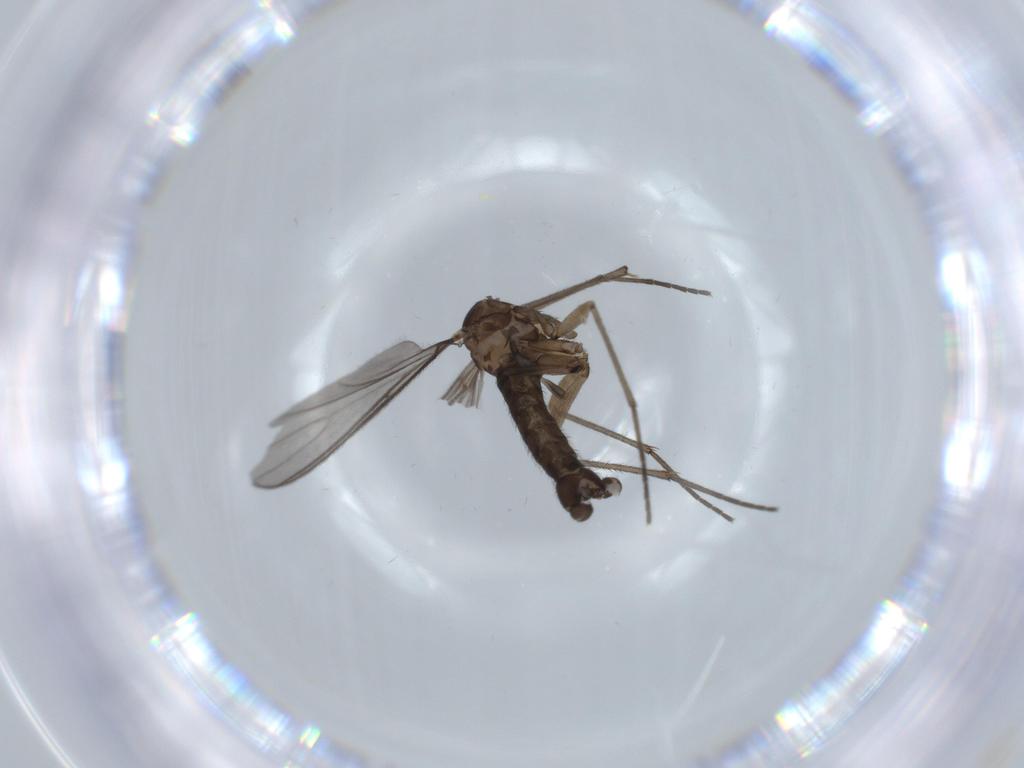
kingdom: Animalia
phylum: Arthropoda
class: Insecta
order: Diptera
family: Sciaridae
